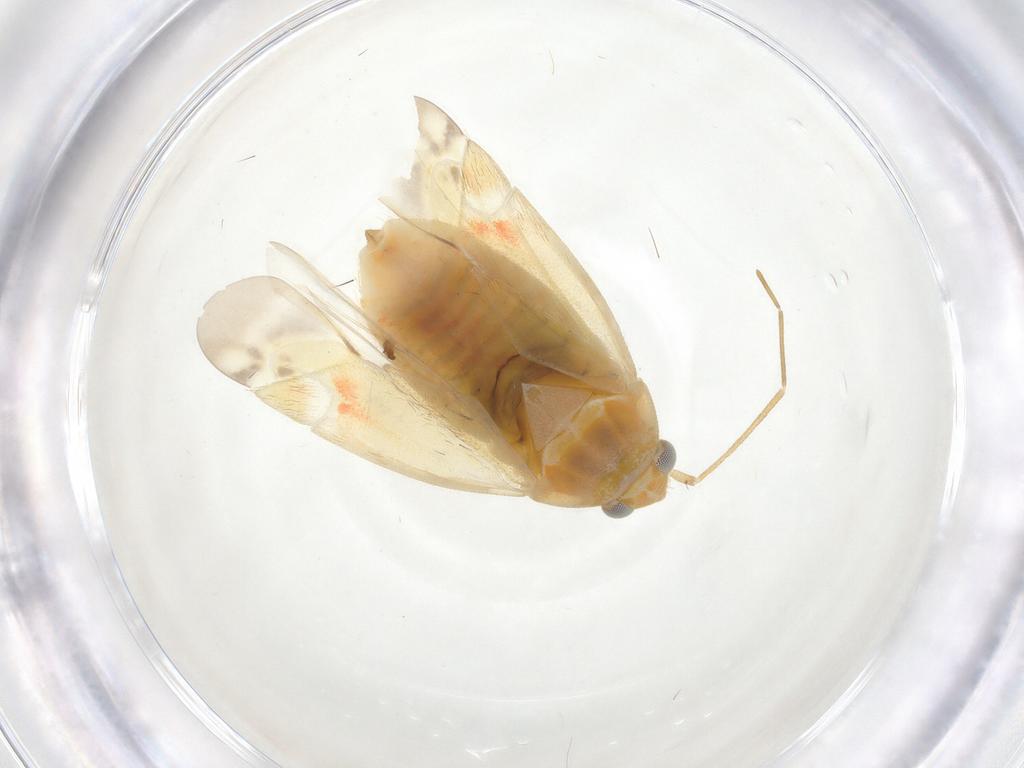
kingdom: Animalia
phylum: Arthropoda
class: Insecta
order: Hemiptera
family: Miridae
